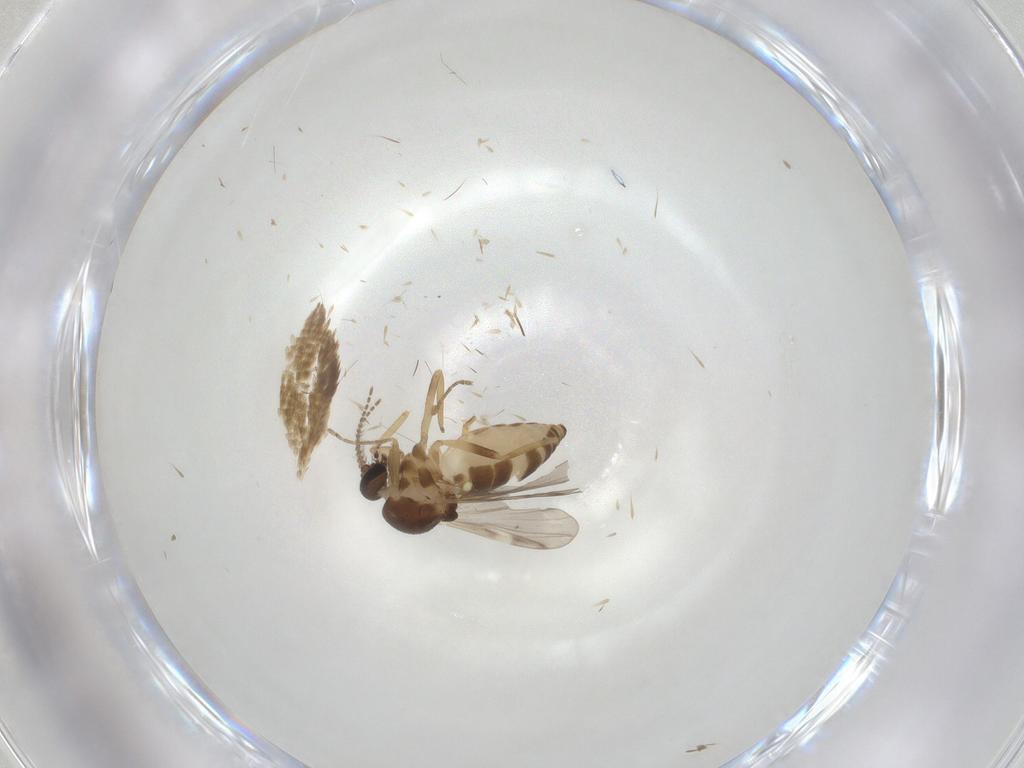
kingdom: Animalia
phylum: Arthropoda
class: Insecta
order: Diptera
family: Ceratopogonidae
